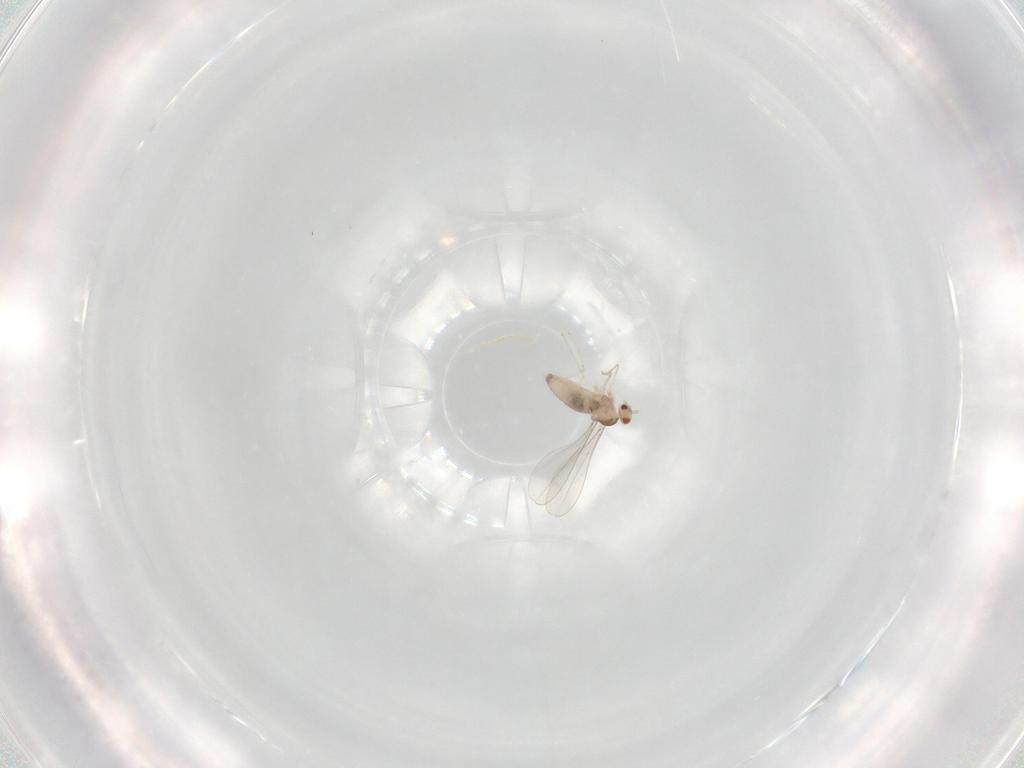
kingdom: Animalia
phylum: Arthropoda
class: Insecta
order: Diptera
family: Cecidomyiidae
